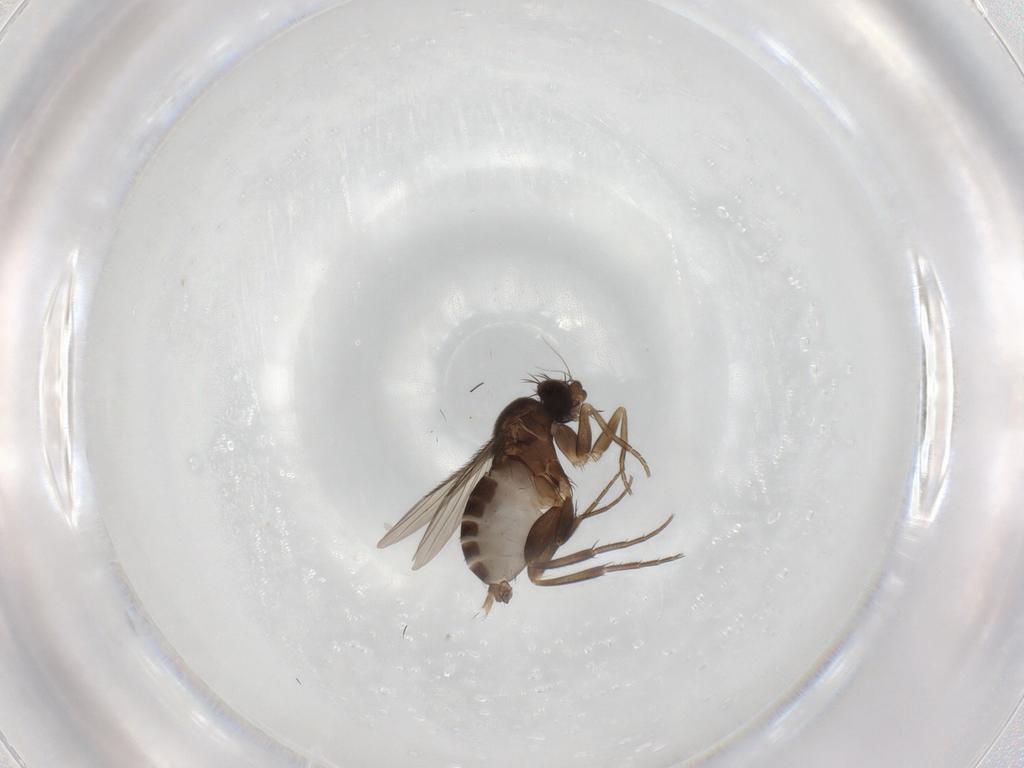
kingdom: Animalia
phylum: Arthropoda
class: Insecta
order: Diptera
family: Phoridae
